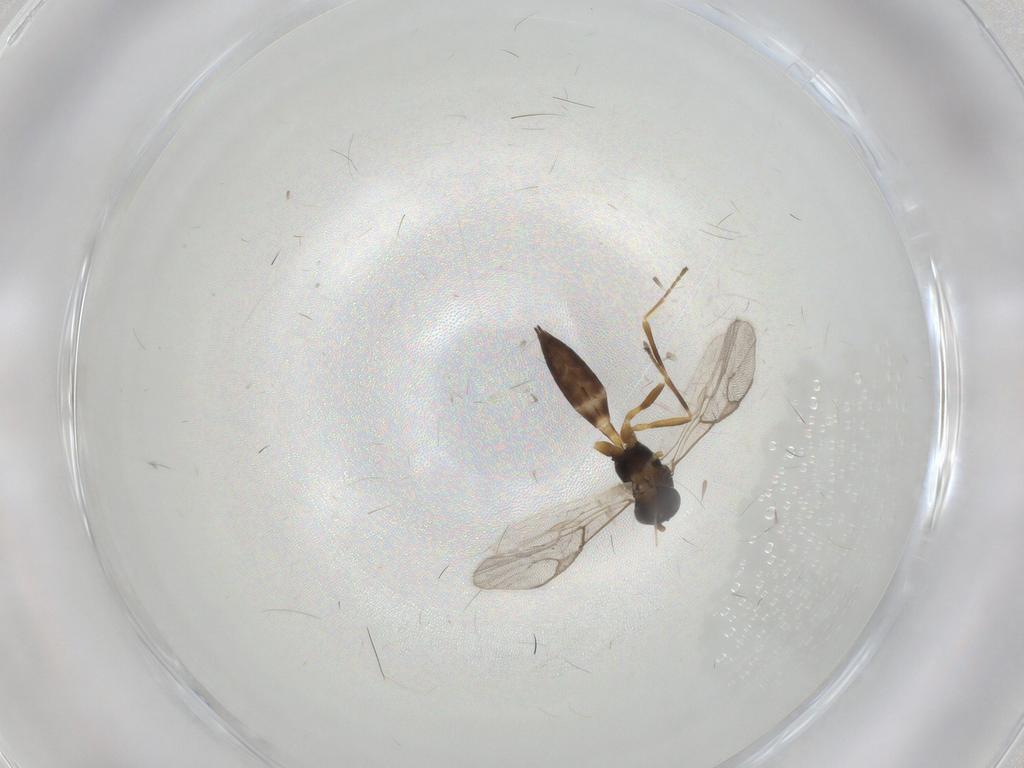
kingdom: Animalia
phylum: Arthropoda
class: Insecta
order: Hymenoptera
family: Braconidae
